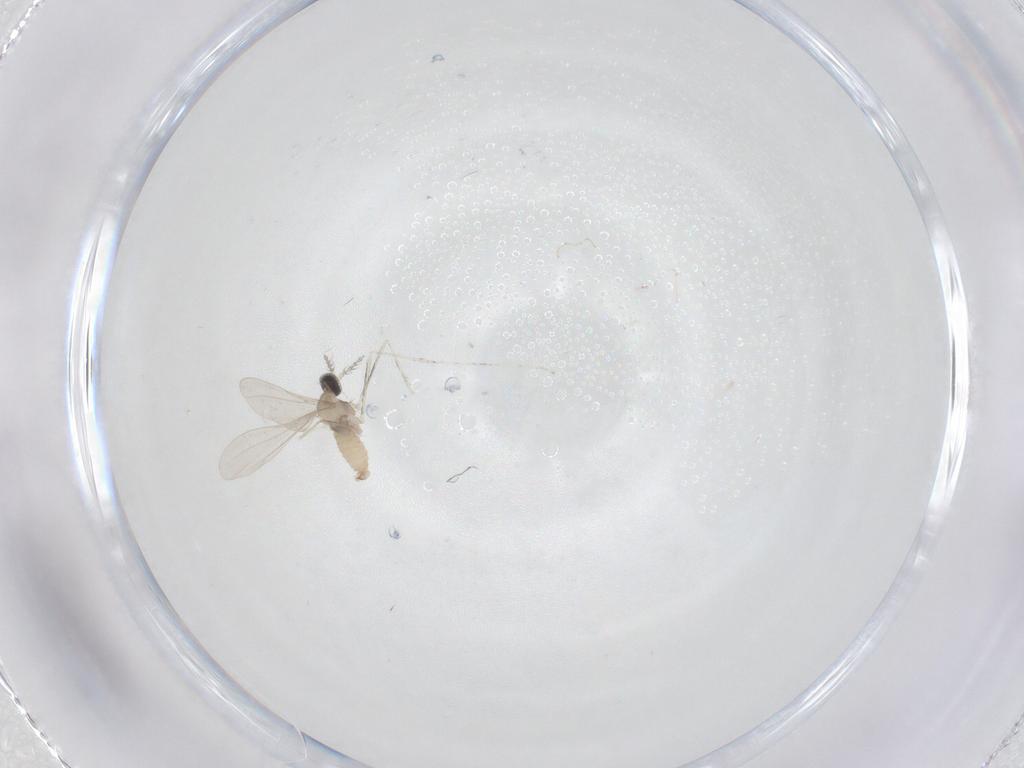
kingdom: Animalia
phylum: Arthropoda
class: Insecta
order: Diptera
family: Cecidomyiidae
